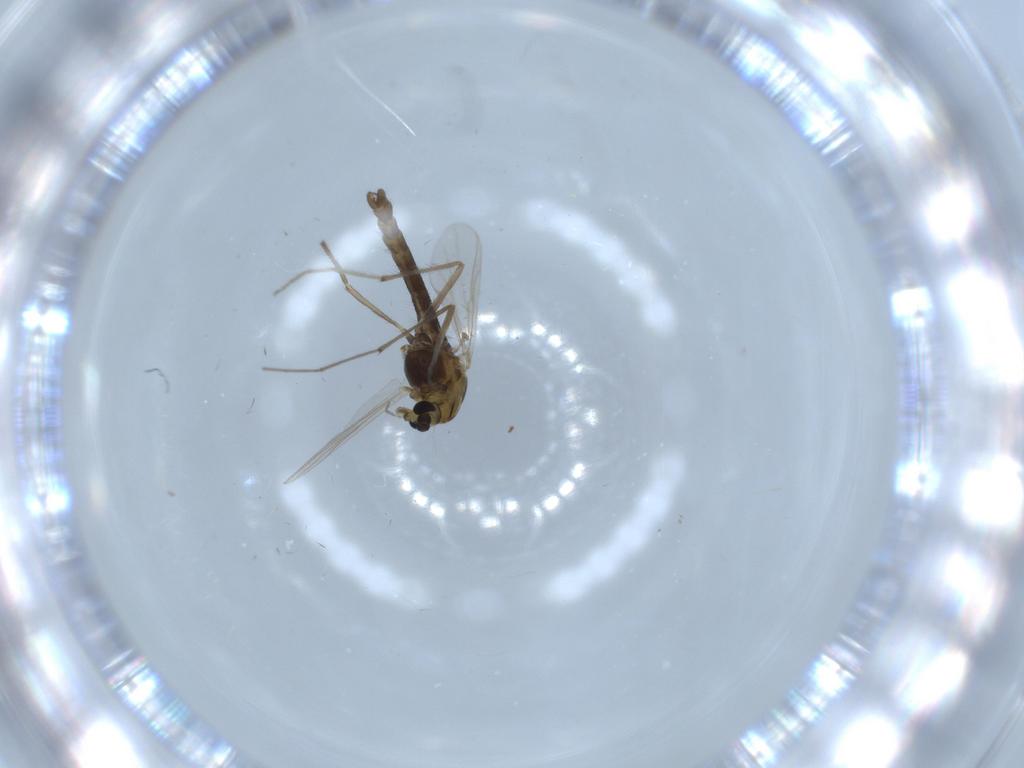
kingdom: Animalia
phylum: Arthropoda
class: Insecta
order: Diptera
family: Chironomidae
